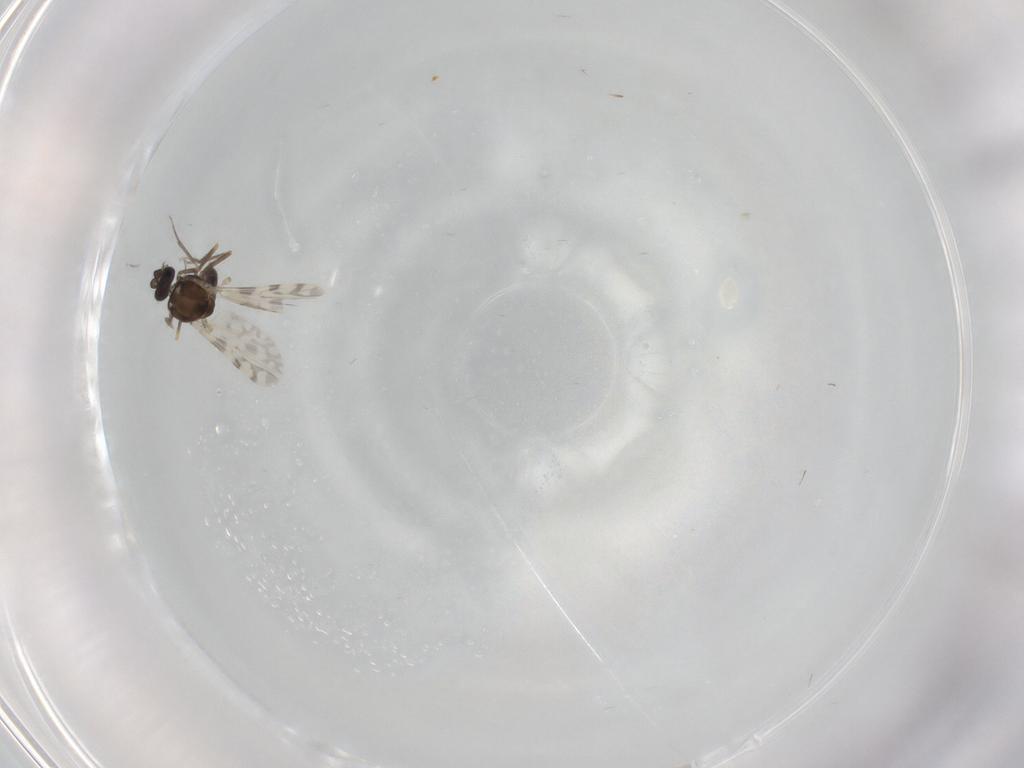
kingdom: Animalia
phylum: Arthropoda
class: Insecta
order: Diptera
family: Ceratopogonidae
